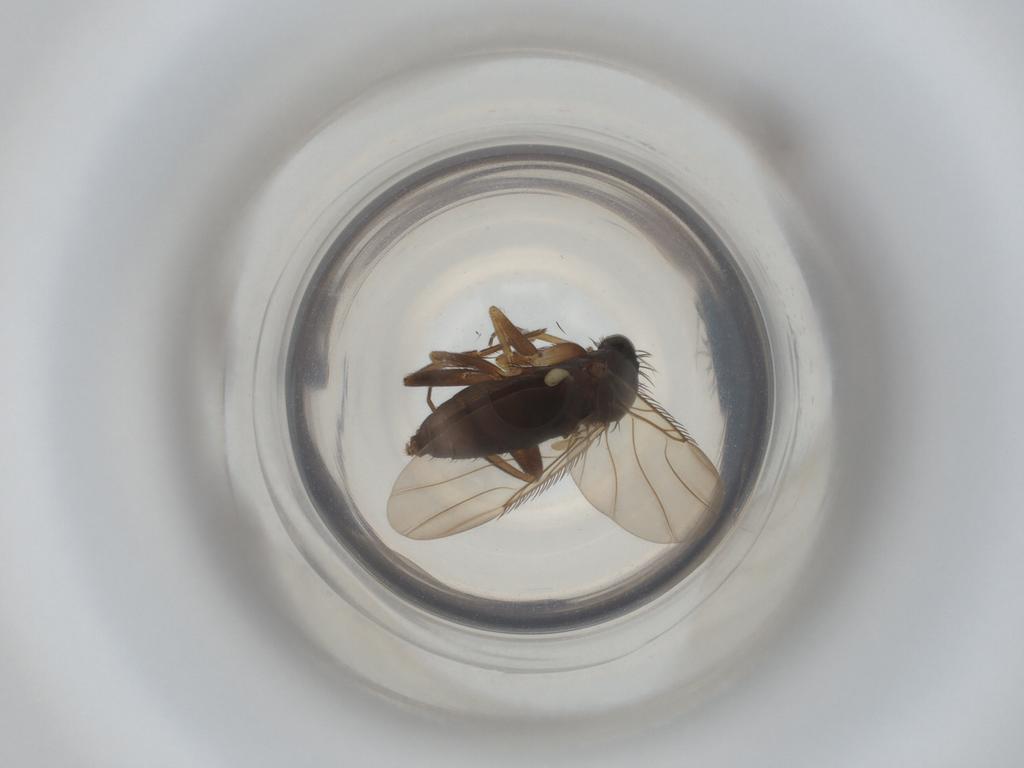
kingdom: Animalia
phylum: Arthropoda
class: Insecta
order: Diptera
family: Phoridae
